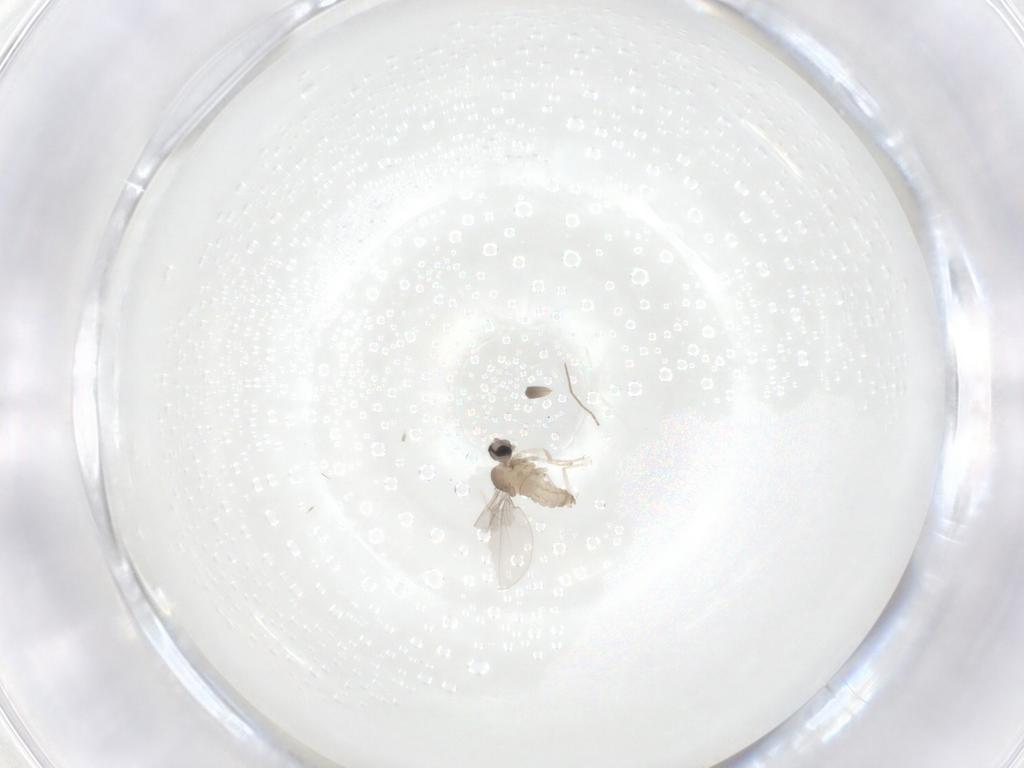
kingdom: Animalia
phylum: Arthropoda
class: Insecta
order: Diptera
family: Cecidomyiidae
